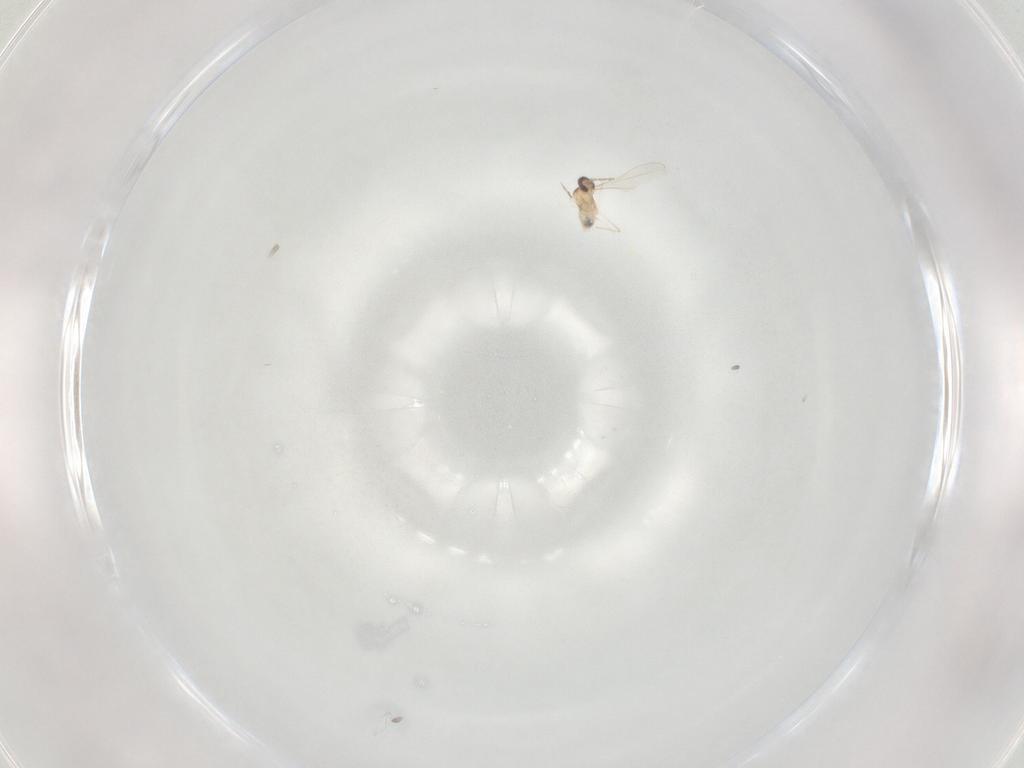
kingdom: Animalia
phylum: Arthropoda
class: Insecta
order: Diptera
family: Cecidomyiidae
